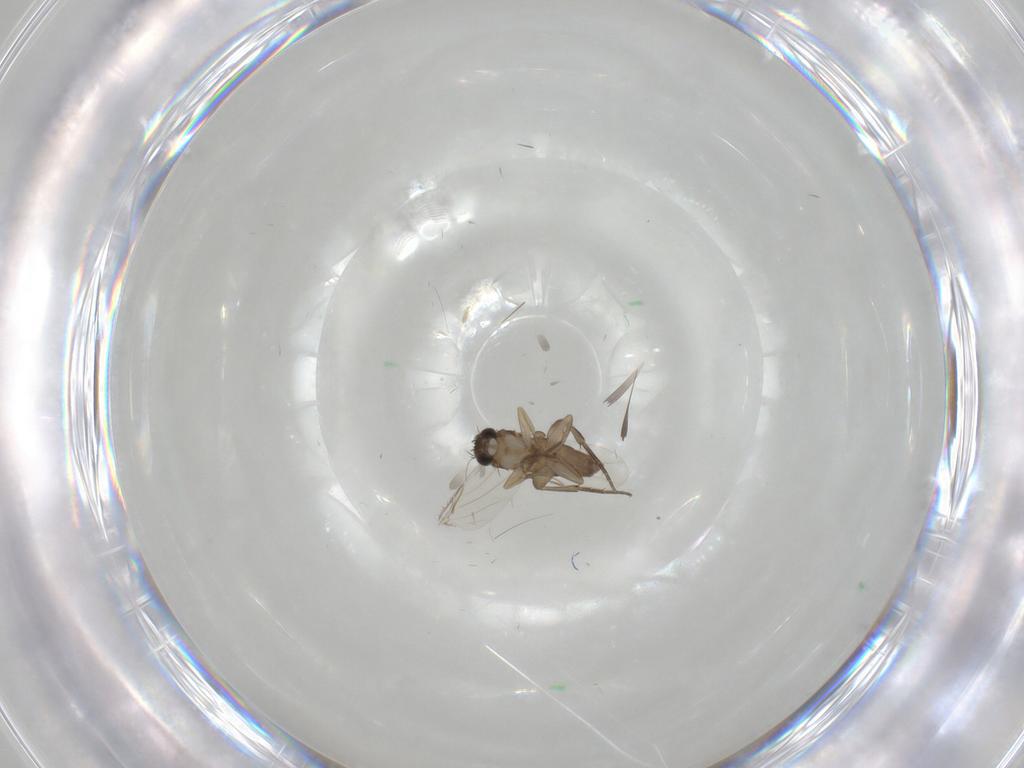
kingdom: Animalia
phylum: Arthropoda
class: Insecta
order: Diptera
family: Phoridae
